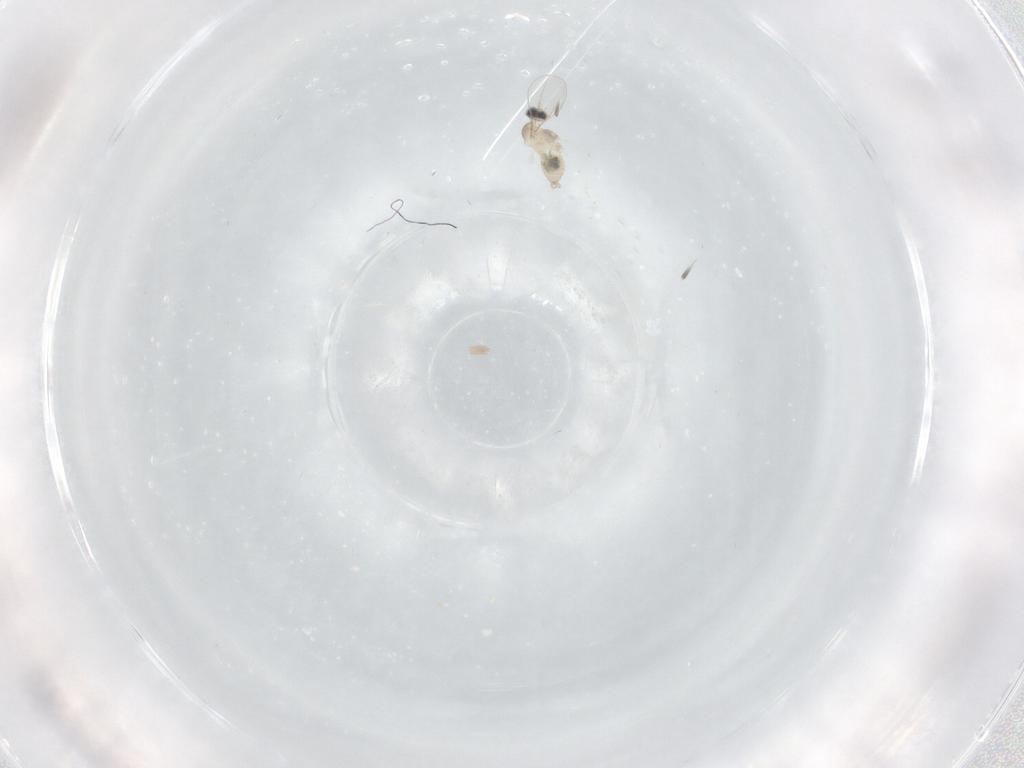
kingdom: Animalia
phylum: Arthropoda
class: Insecta
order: Diptera
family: Cecidomyiidae
